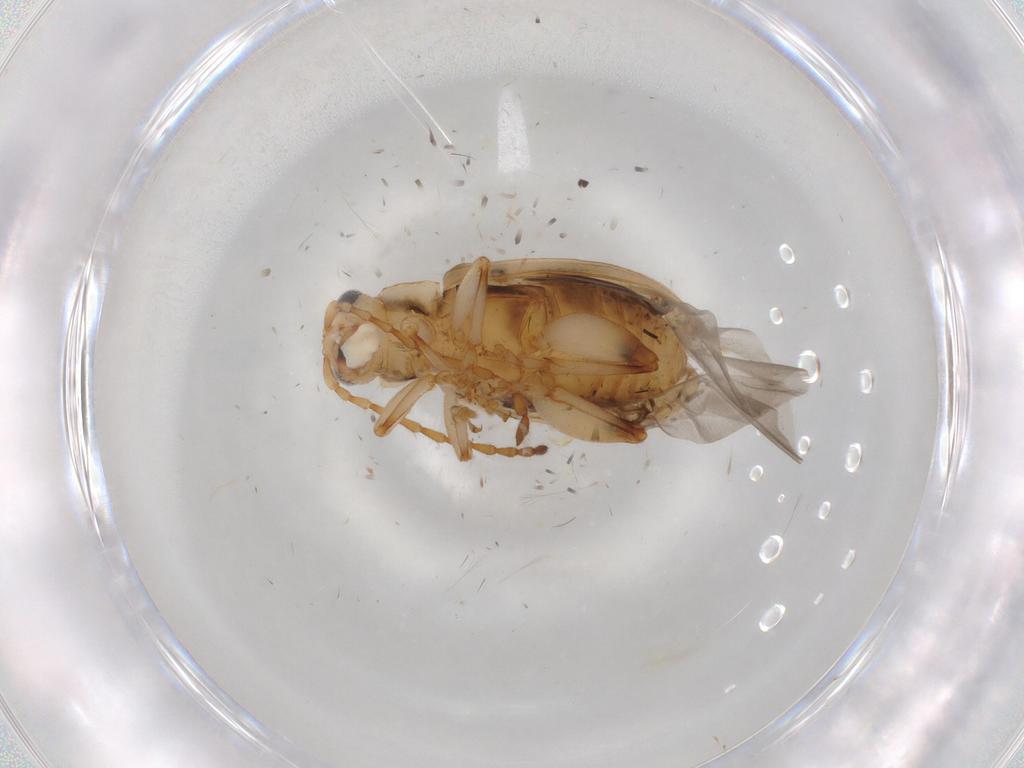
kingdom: Animalia
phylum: Arthropoda
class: Insecta
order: Coleoptera
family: Chrysomelidae
